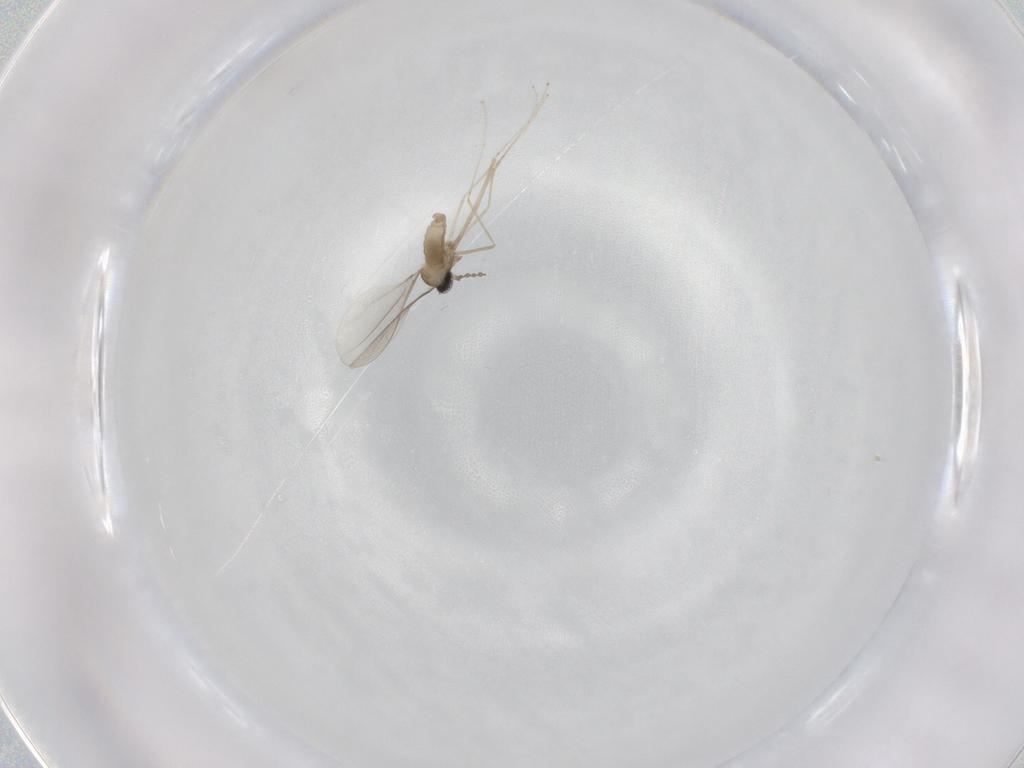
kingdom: Animalia
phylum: Arthropoda
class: Insecta
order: Diptera
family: Cecidomyiidae
